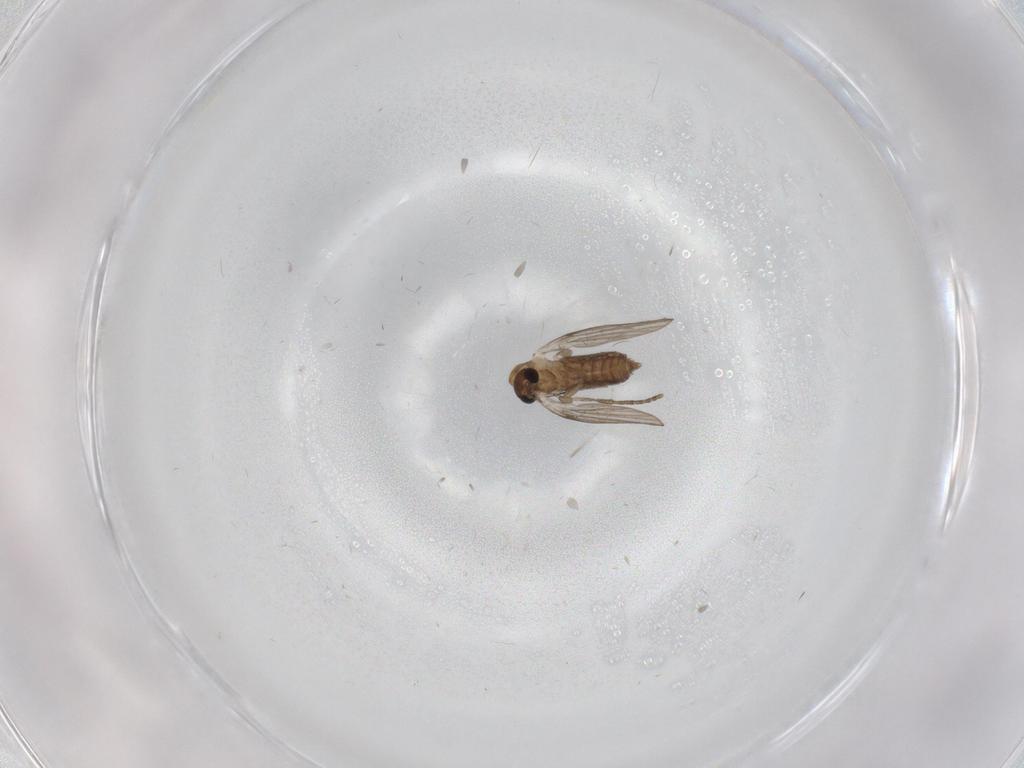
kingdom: Animalia
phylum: Arthropoda
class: Insecta
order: Diptera
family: Psychodidae
